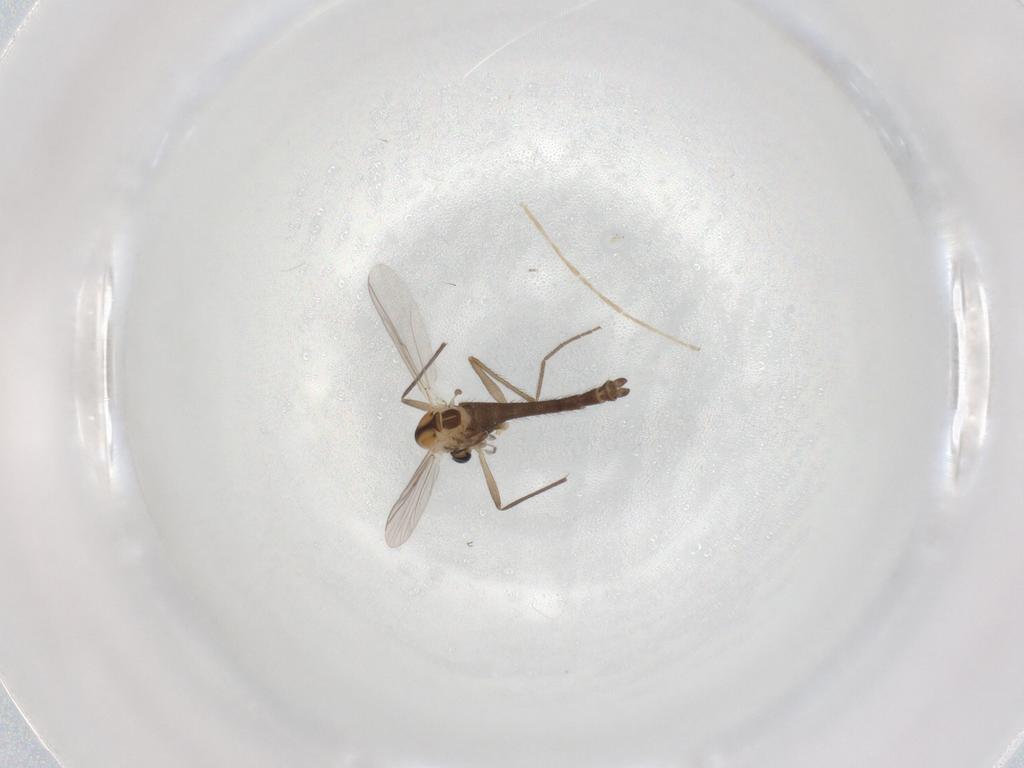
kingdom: Animalia
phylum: Arthropoda
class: Insecta
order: Diptera
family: Chironomidae
